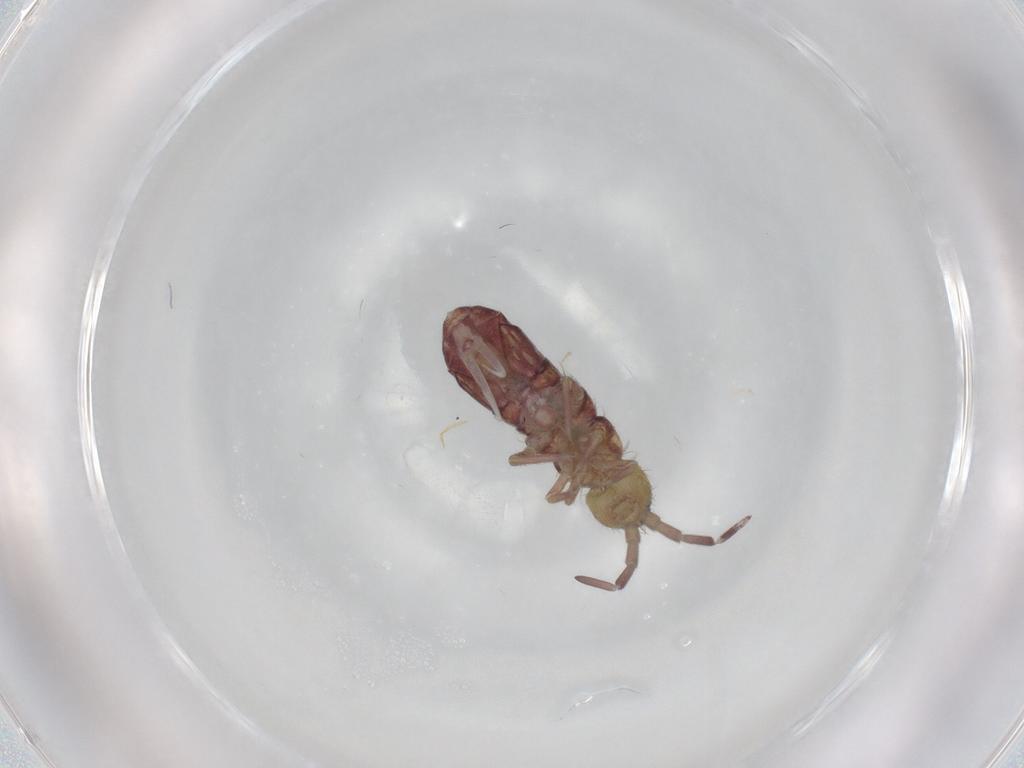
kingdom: Animalia
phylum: Arthropoda
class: Collembola
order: Entomobryomorpha
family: Isotomidae
